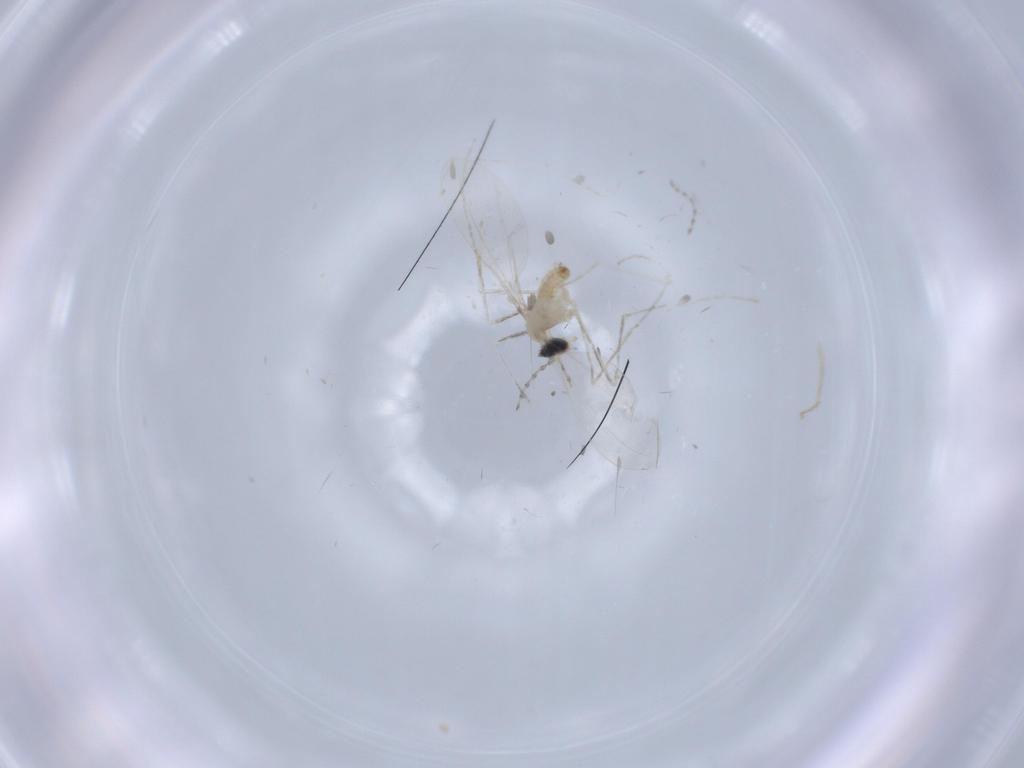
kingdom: Animalia
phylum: Arthropoda
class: Insecta
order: Diptera
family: Cecidomyiidae
